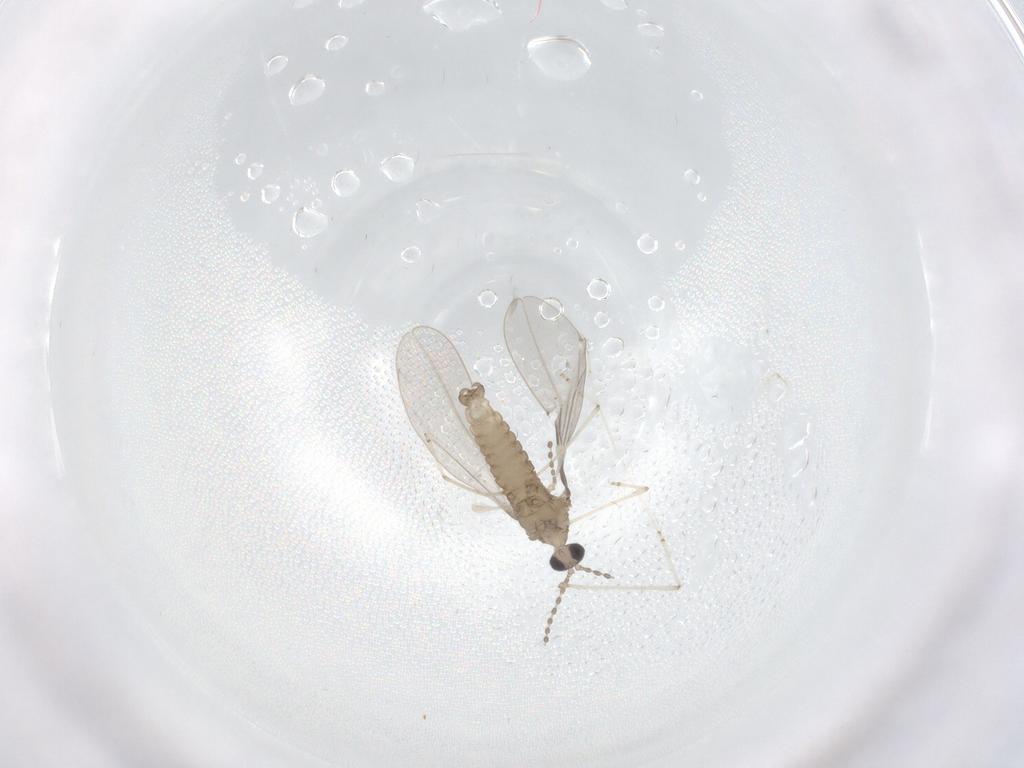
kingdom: Animalia
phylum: Arthropoda
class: Insecta
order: Diptera
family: Cecidomyiidae
